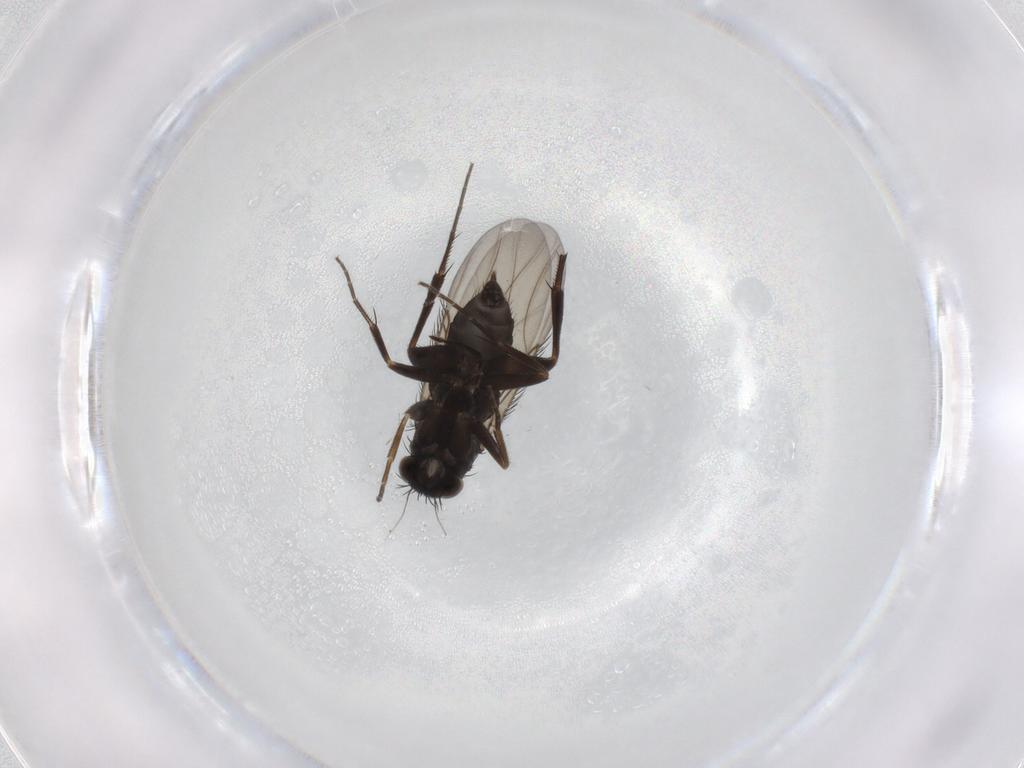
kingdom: Animalia
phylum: Arthropoda
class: Insecta
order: Diptera
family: Phoridae
